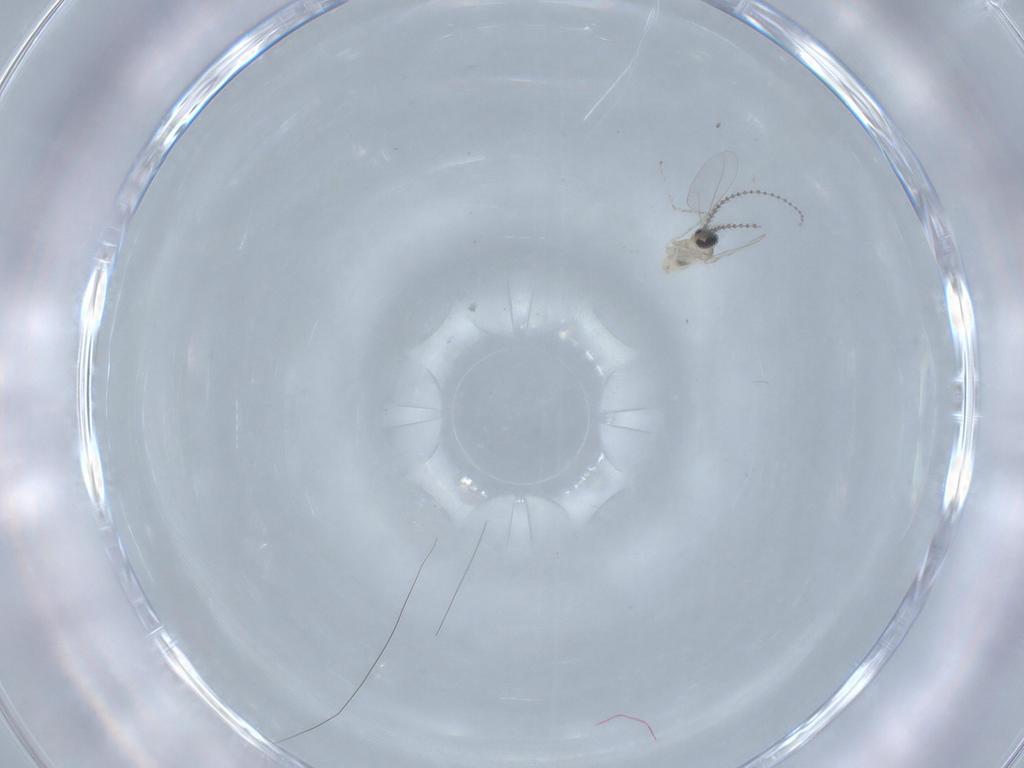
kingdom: Animalia
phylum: Arthropoda
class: Insecta
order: Diptera
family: Cecidomyiidae
